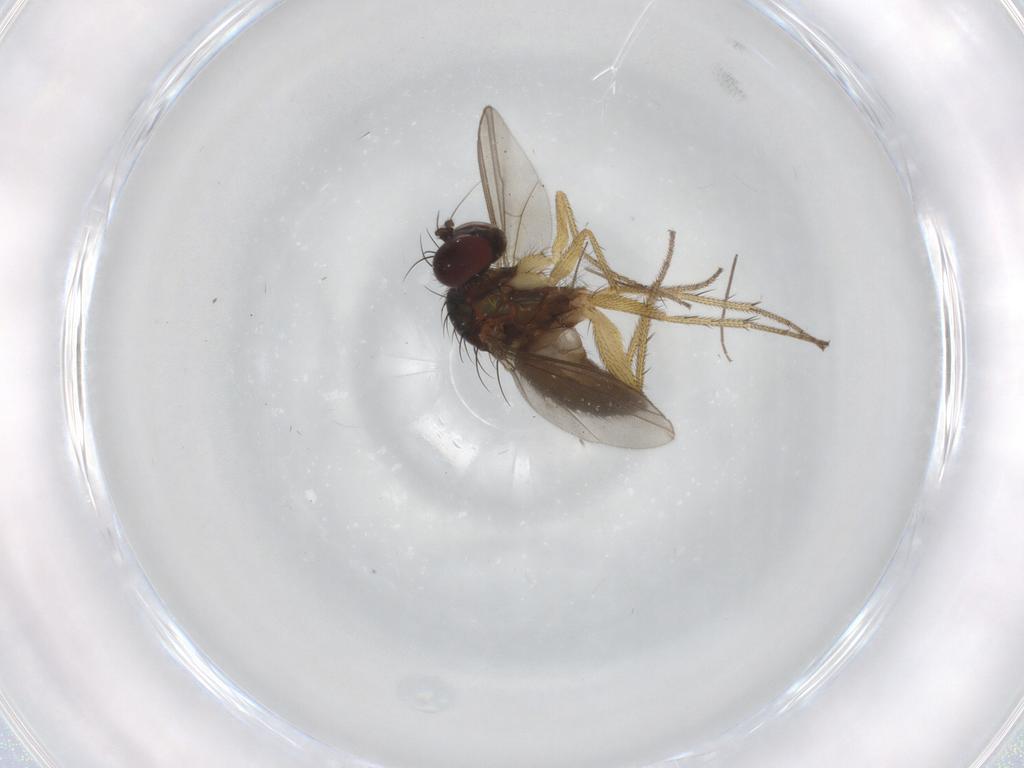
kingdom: Animalia
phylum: Arthropoda
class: Insecta
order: Diptera
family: Dolichopodidae
